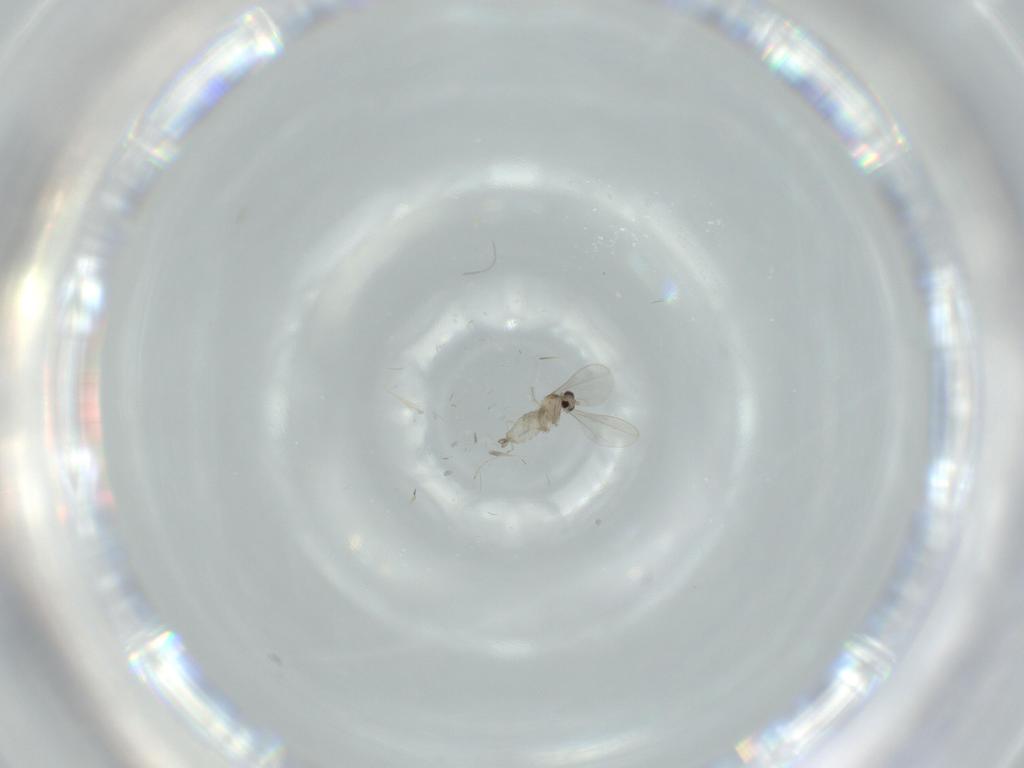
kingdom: Animalia
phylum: Arthropoda
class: Insecta
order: Diptera
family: Cecidomyiidae
